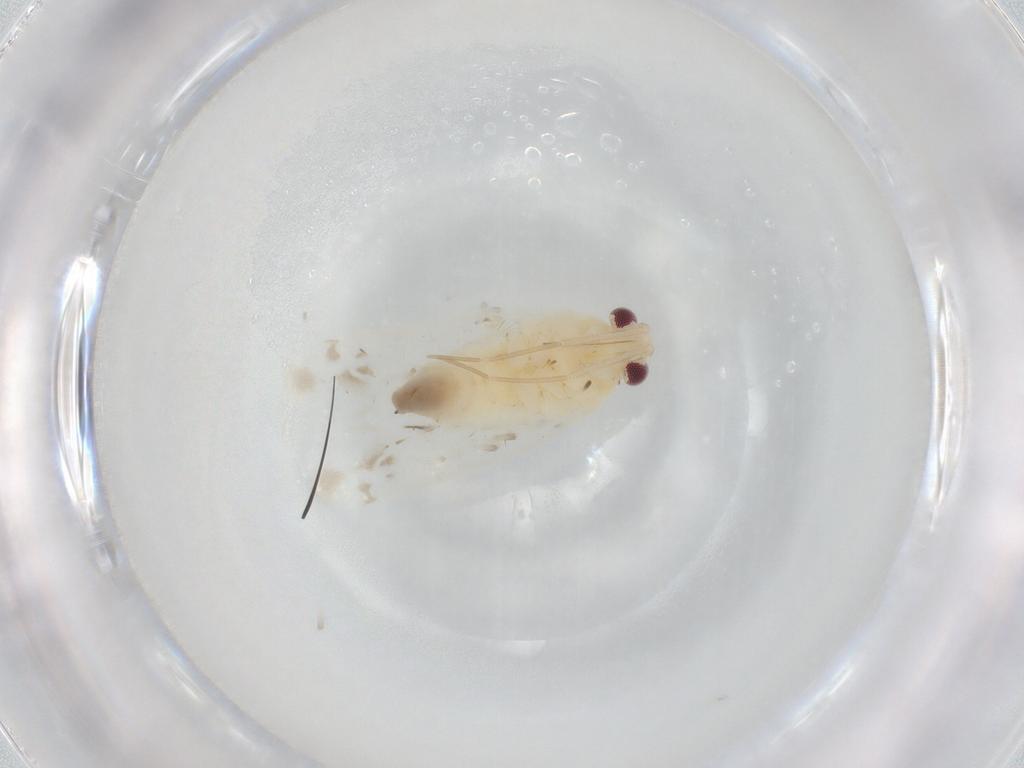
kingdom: Animalia
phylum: Arthropoda
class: Insecta
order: Hemiptera
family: Miridae
